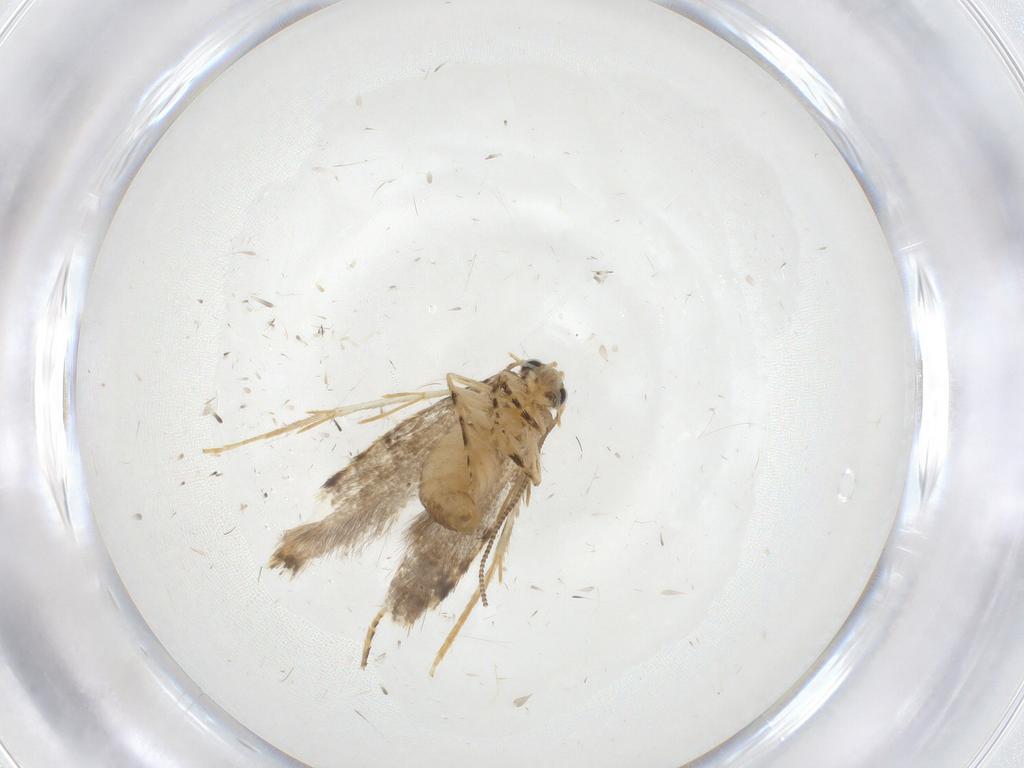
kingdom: Animalia
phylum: Arthropoda
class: Insecta
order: Lepidoptera
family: Tineidae
